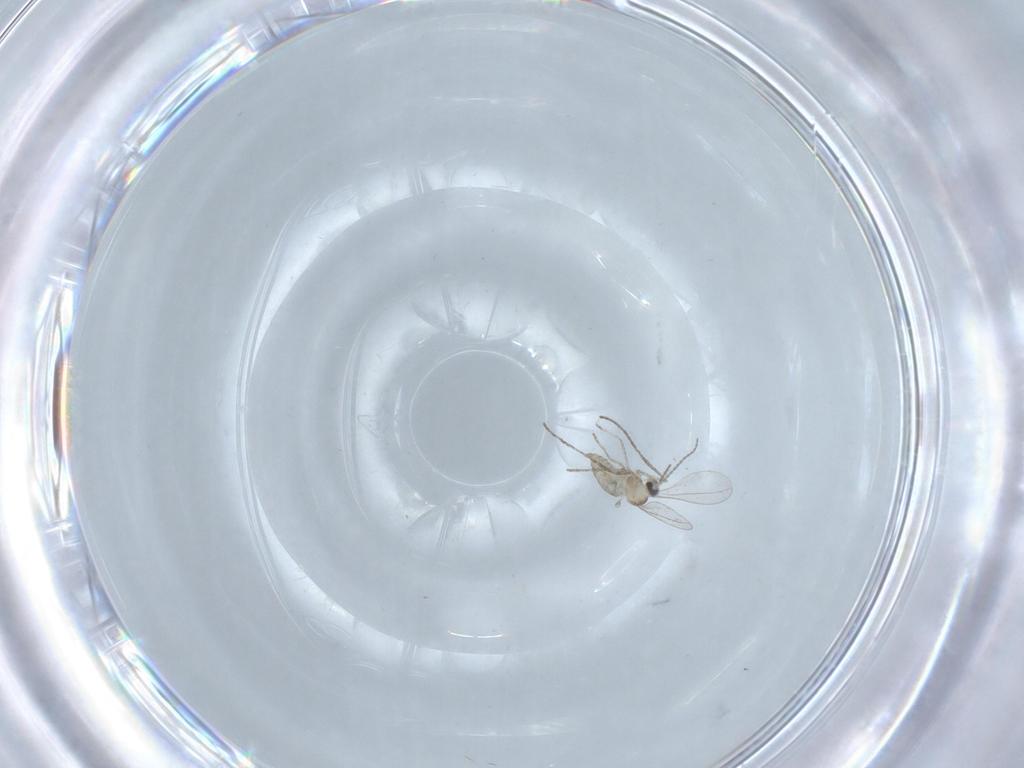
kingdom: Animalia
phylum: Arthropoda
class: Insecta
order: Diptera
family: Cecidomyiidae
